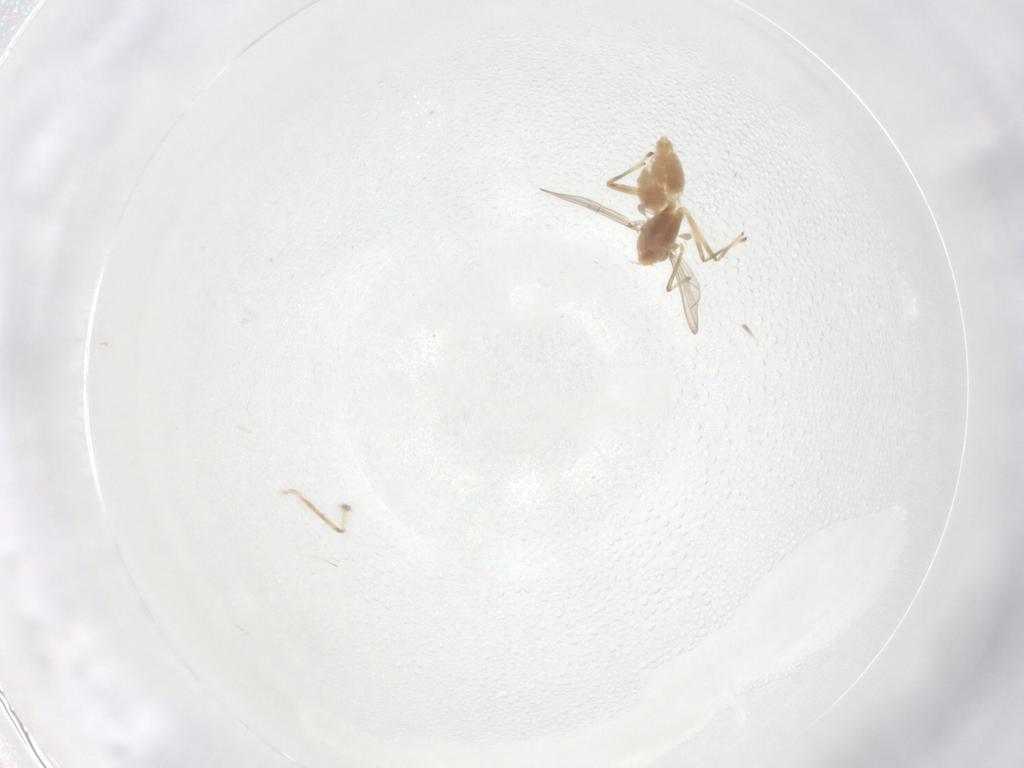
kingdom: Animalia
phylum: Arthropoda
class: Insecta
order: Diptera
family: Chironomidae
